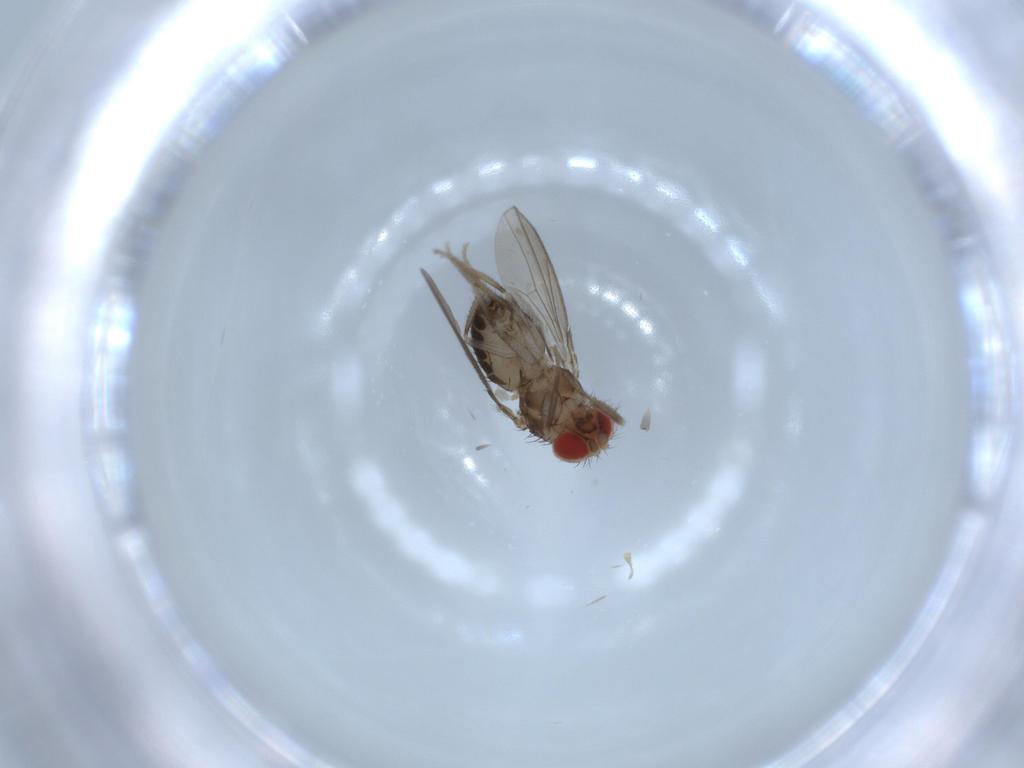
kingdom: Animalia
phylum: Arthropoda
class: Insecta
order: Diptera
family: Drosophilidae
